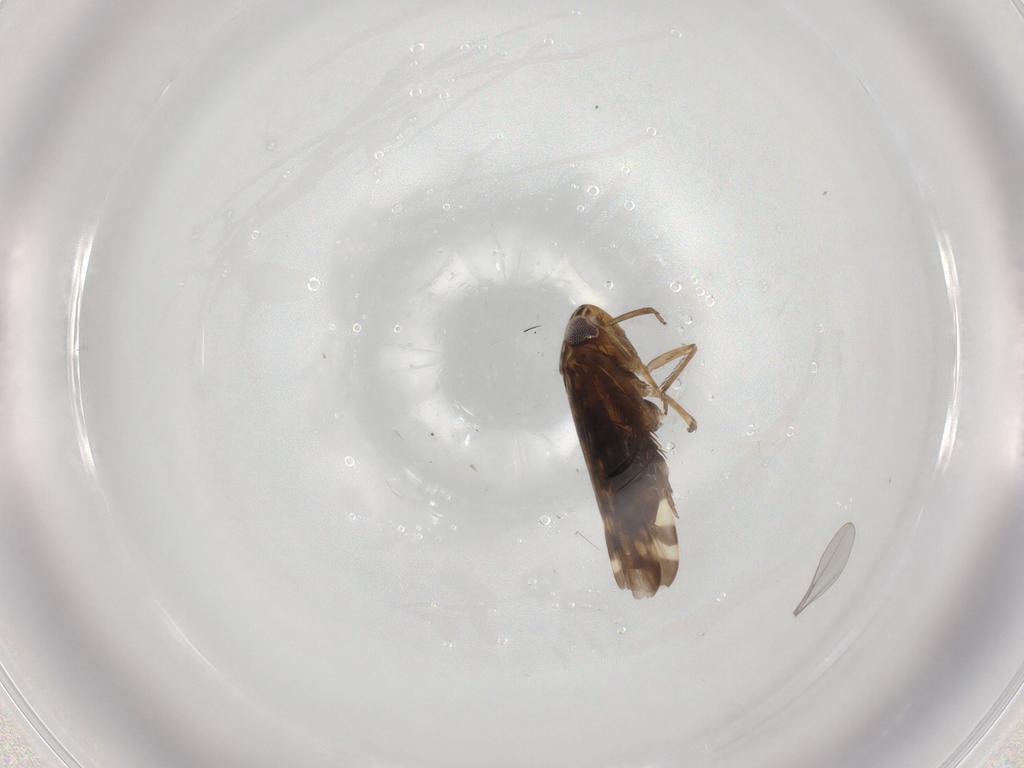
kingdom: Animalia
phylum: Arthropoda
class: Insecta
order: Hemiptera
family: Cicadellidae
